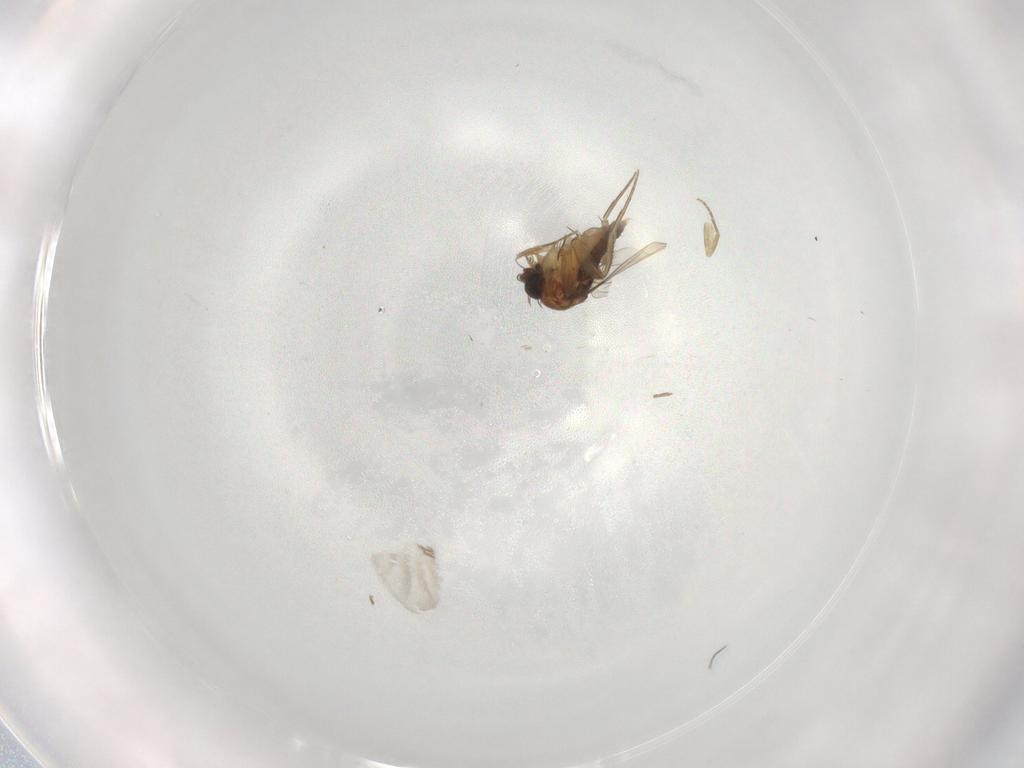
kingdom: Animalia
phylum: Arthropoda
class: Insecta
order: Diptera
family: Phoridae
